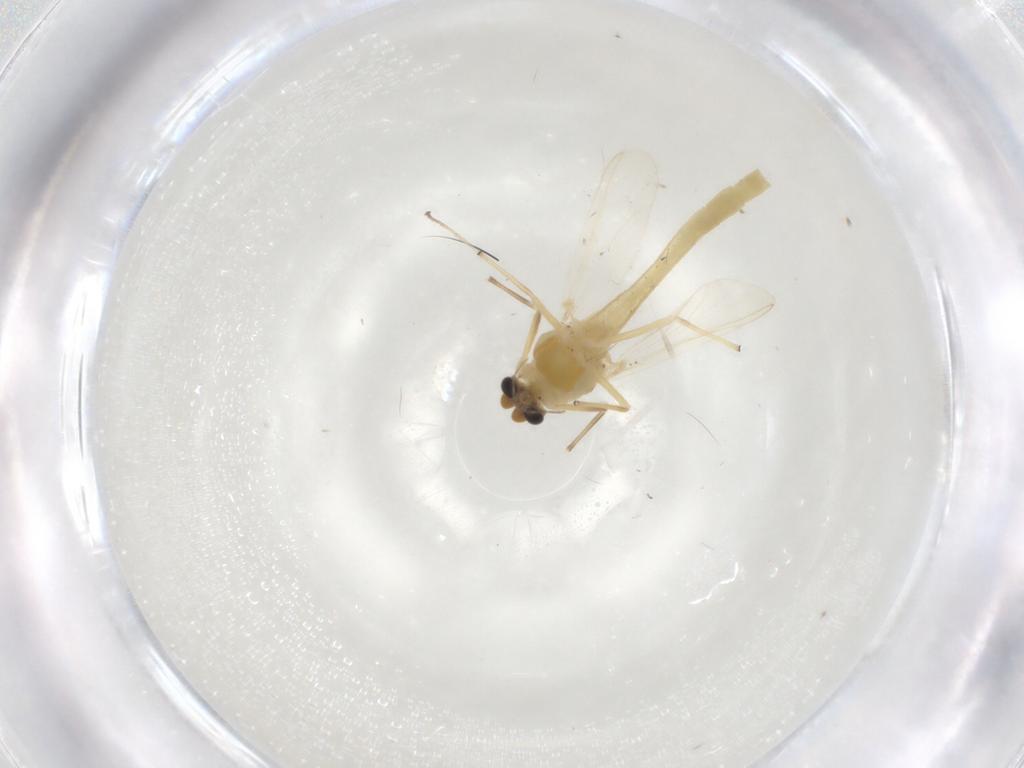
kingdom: Animalia
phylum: Arthropoda
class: Insecta
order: Diptera
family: Chironomidae
